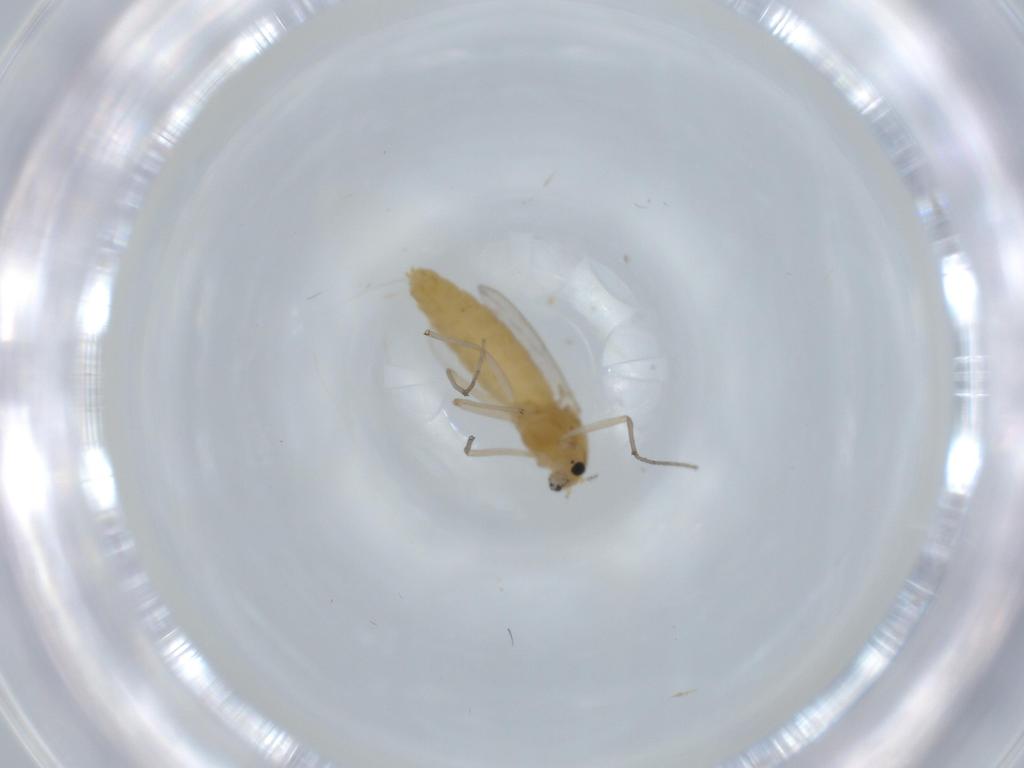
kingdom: Animalia
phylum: Arthropoda
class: Insecta
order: Diptera
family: Chironomidae
